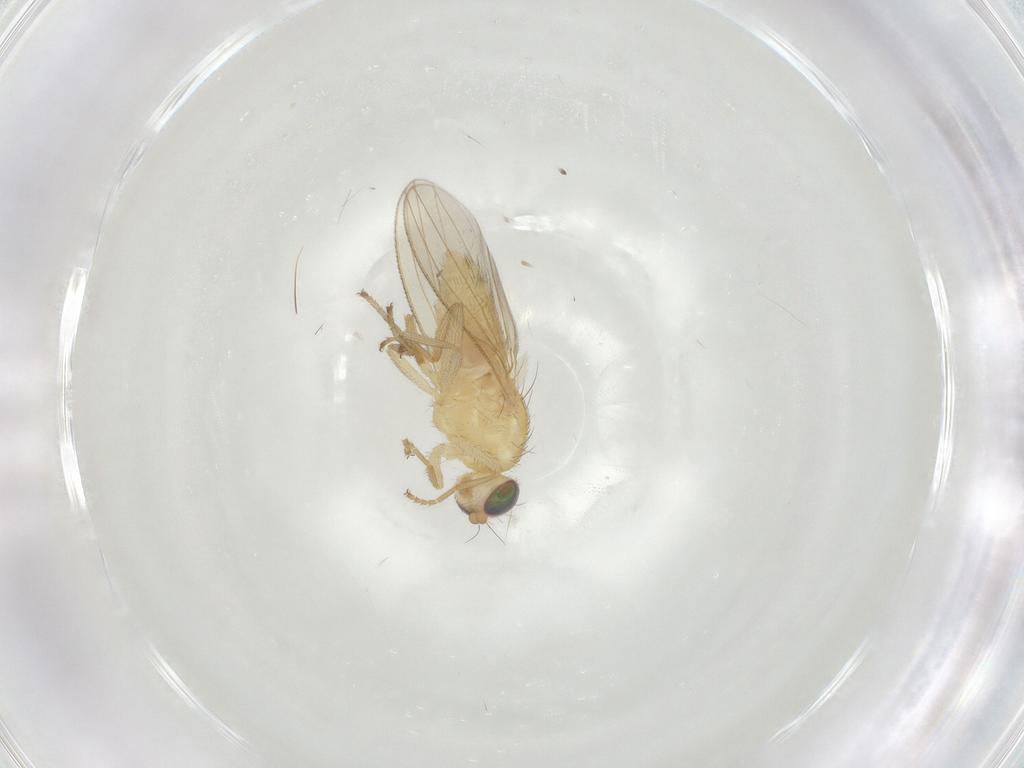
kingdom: Animalia
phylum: Arthropoda
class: Insecta
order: Diptera
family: Chyromyidae
